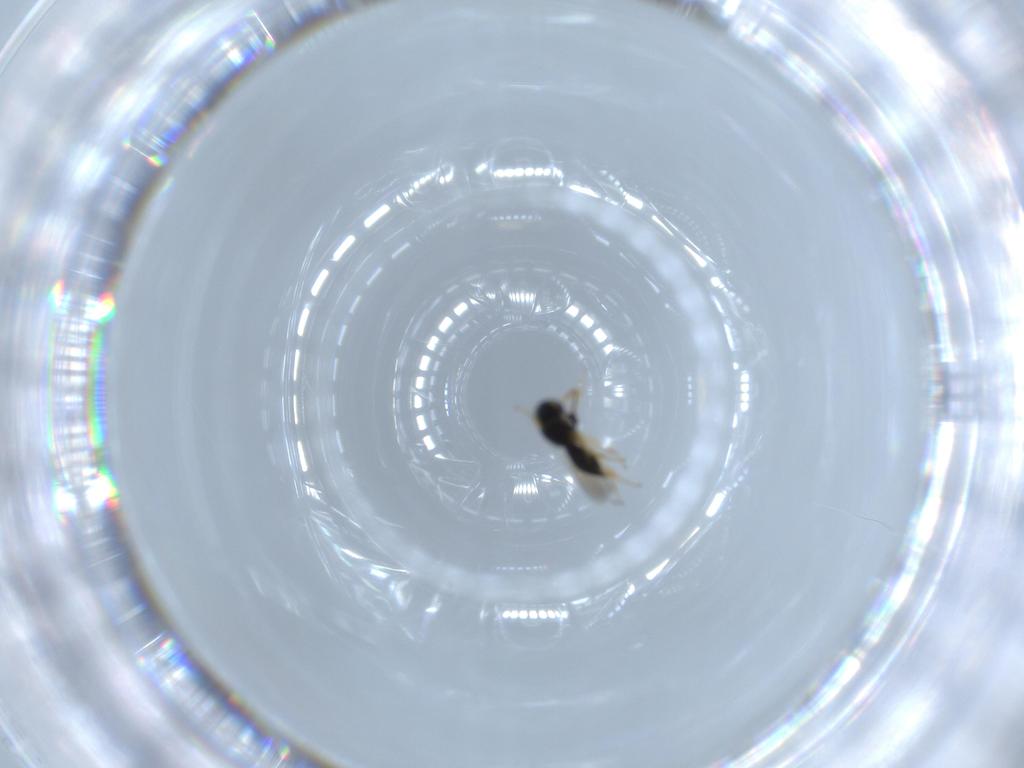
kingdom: Animalia
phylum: Arthropoda
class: Insecta
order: Hymenoptera
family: Scelionidae
